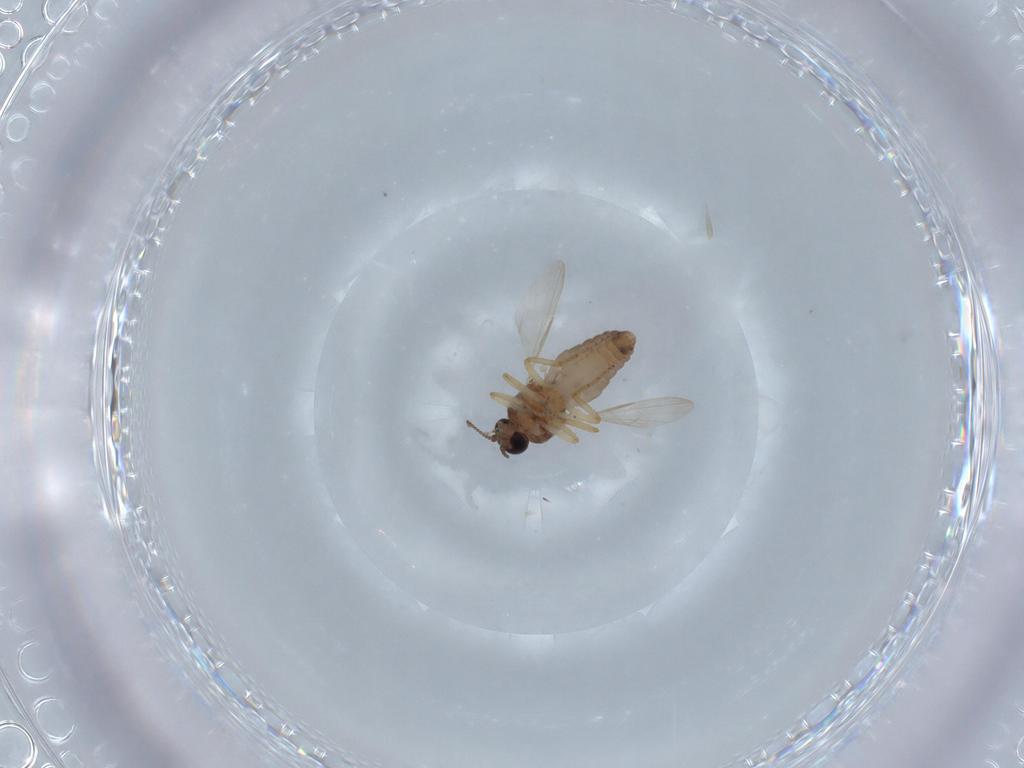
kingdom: Animalia
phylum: Arthropoda
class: Insecta
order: Diptera
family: Ceratopogonidae
